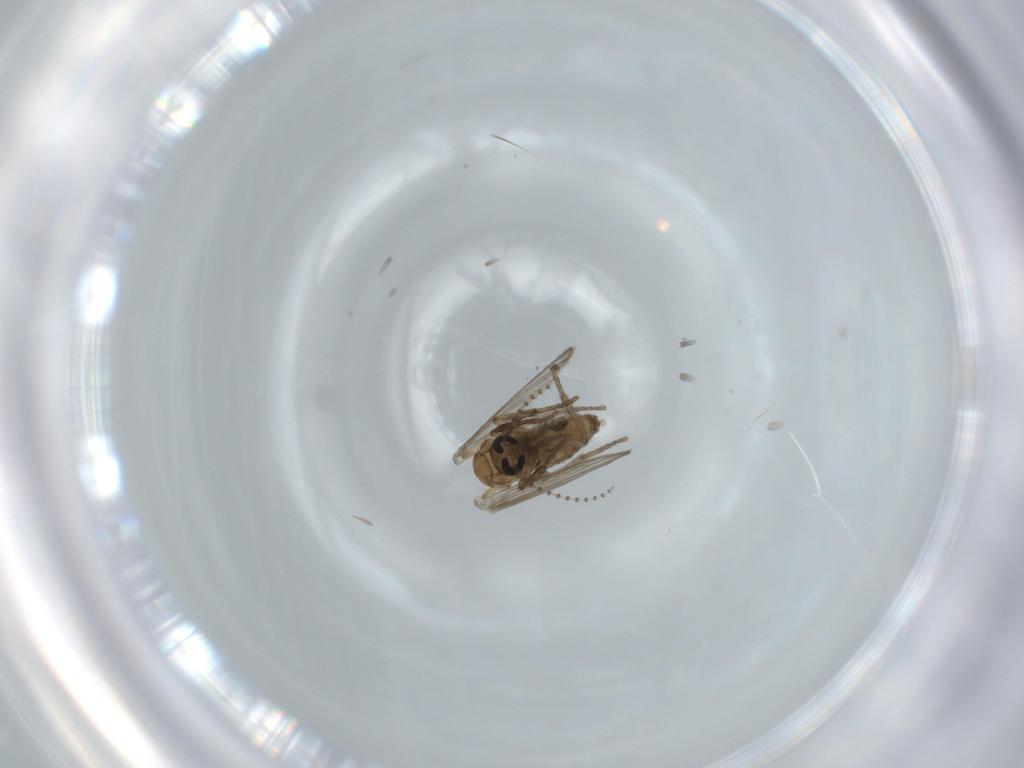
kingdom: Animalia
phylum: Arthropoda
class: Insecta
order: Diptera
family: Psychodidae
